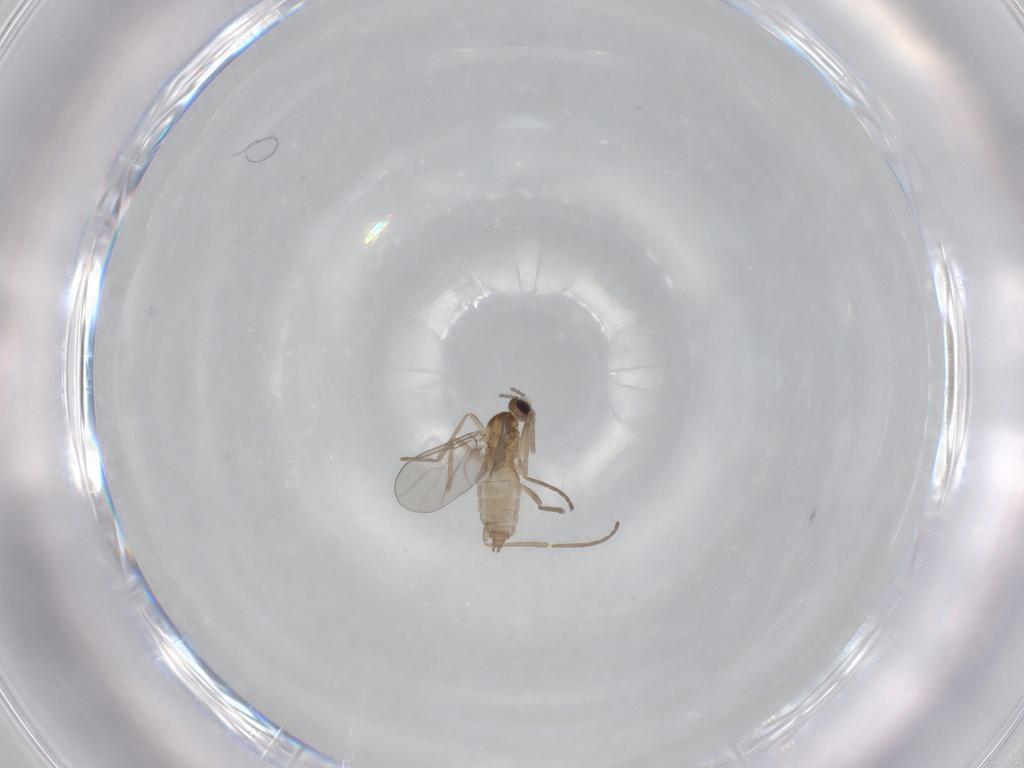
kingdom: Animalia
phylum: Arthropoda
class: Insecta
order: Diptera
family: Cecidomyiidae
